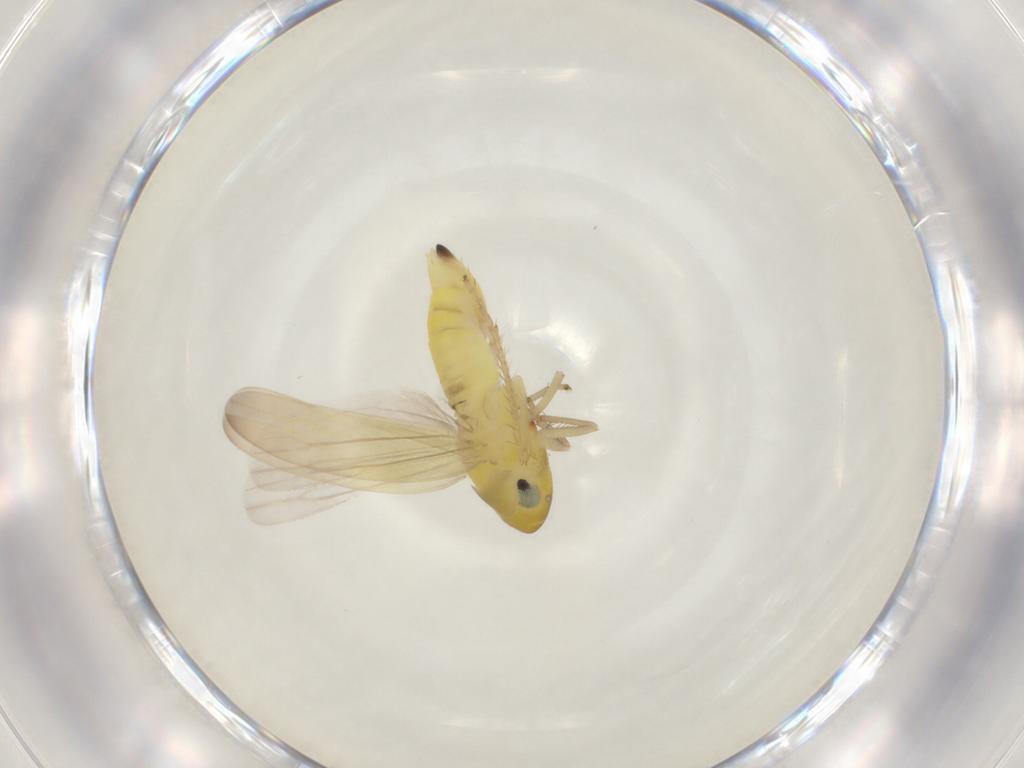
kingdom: Animalia
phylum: Arthropoda
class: Insecta
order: Hemiptera
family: Cicadellidae
